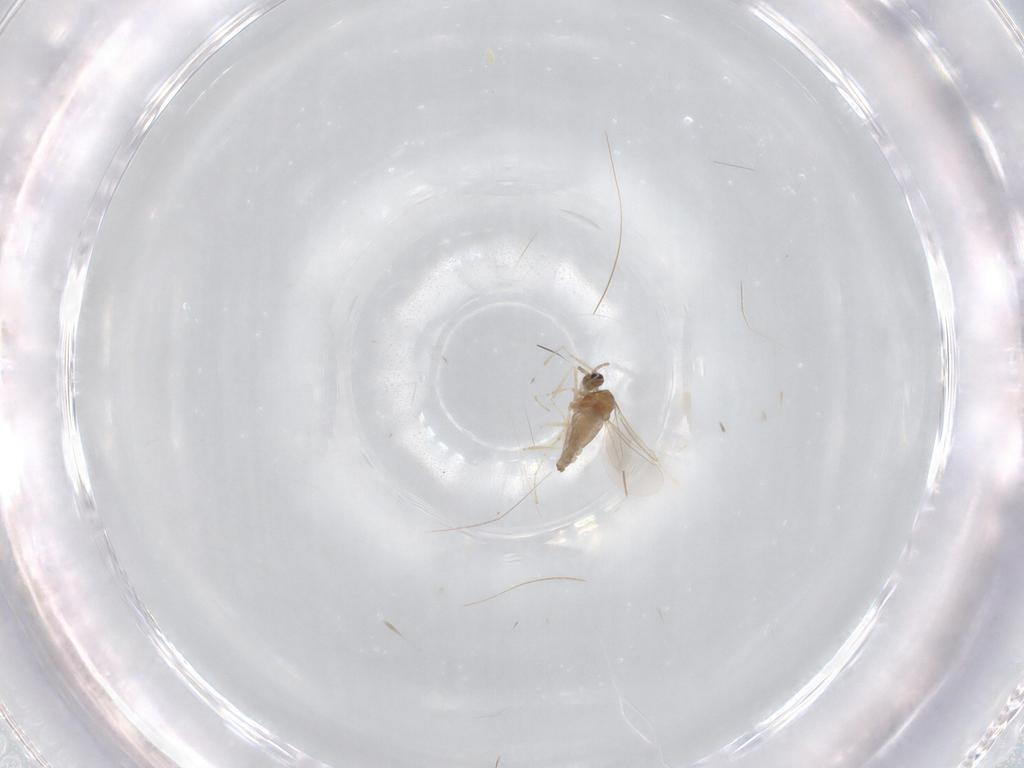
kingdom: Animalia
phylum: Arthropoda
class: Insecta
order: Diptera
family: Cecidomyiidae
